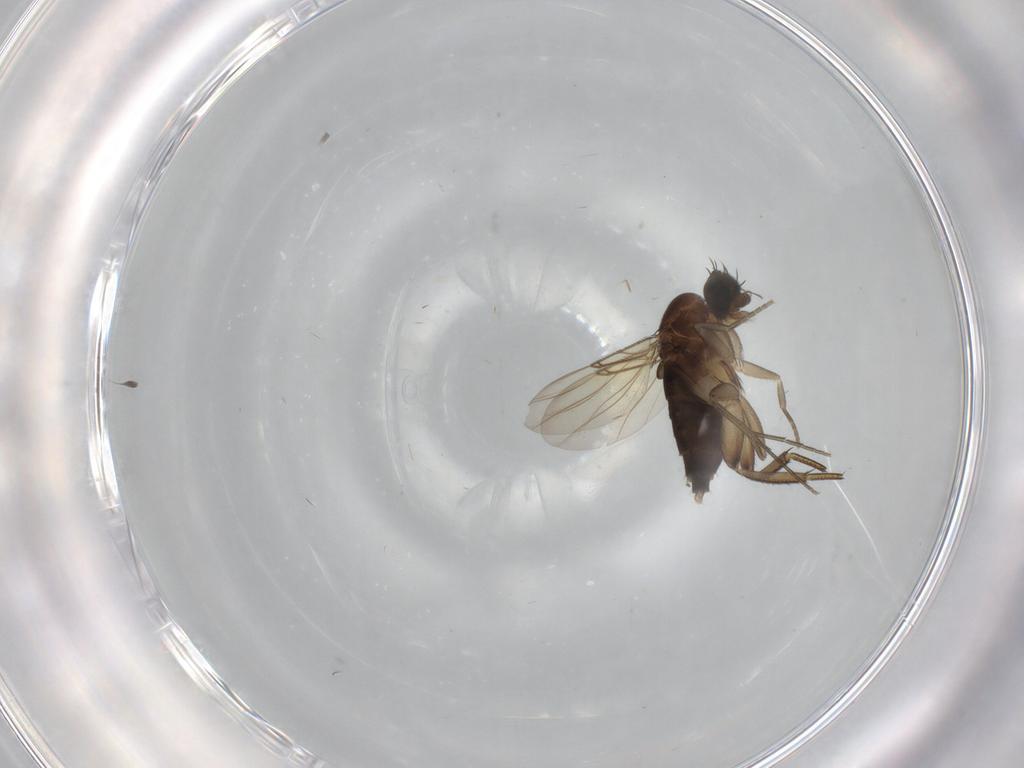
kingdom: Animalia
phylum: Arthropoda
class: Insecta
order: Diptera
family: Phoridae
